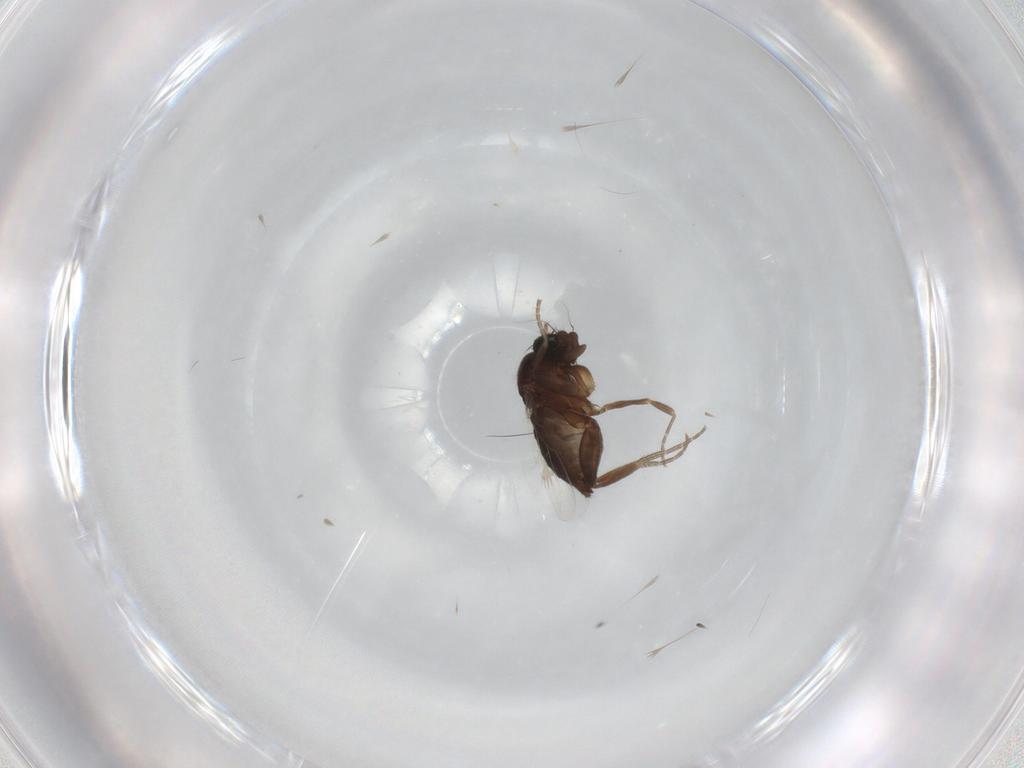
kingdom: Animalia
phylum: Arthropoda
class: Insecta
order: Diptera
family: Phoridae
